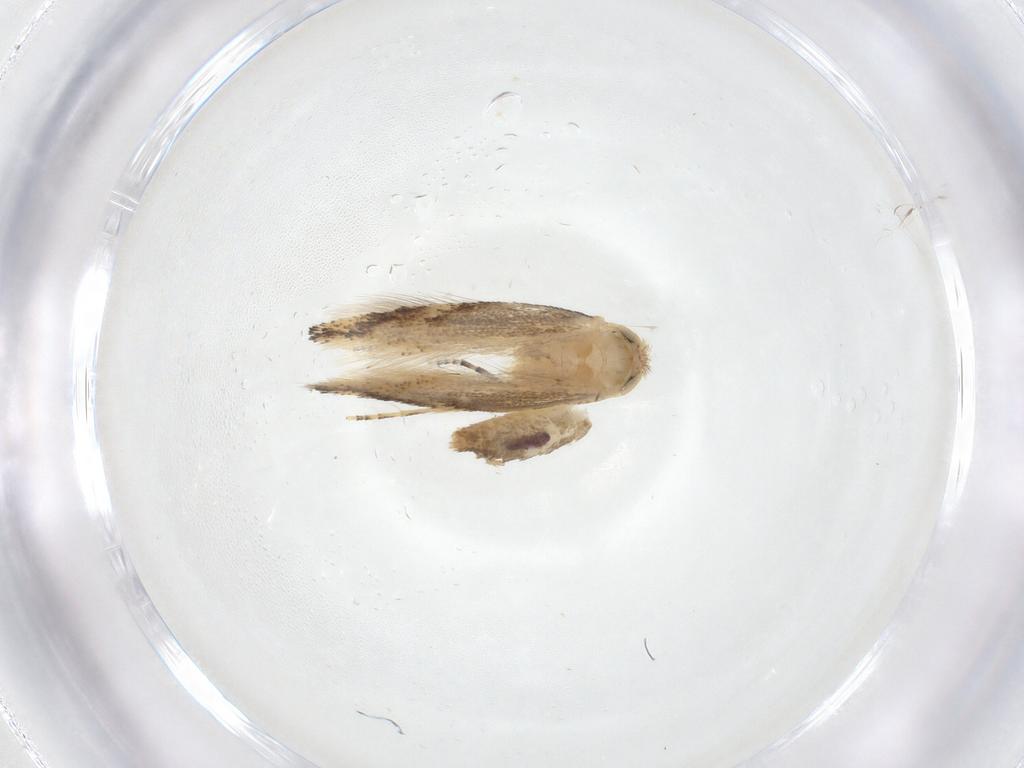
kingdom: Animalia
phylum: Arthropoda
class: Insecta
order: Lepidoptera
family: Bucculatricidae
